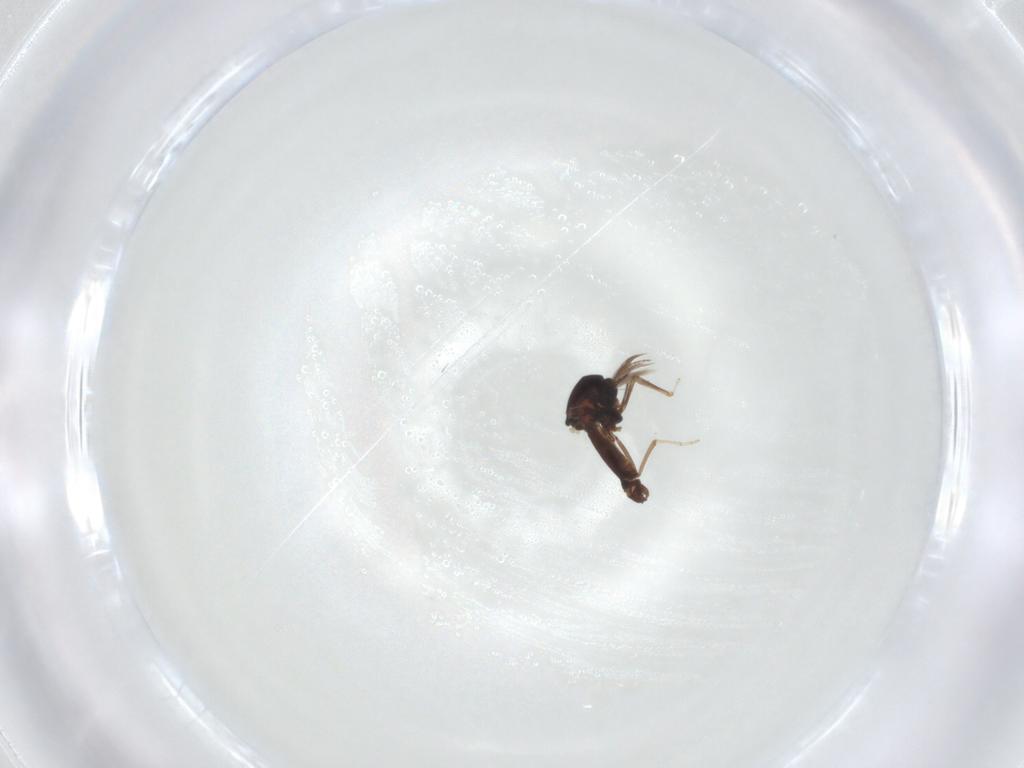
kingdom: Animalia
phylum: Arthropoda
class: Insecta
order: Diptera
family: Ceratopogonidae
